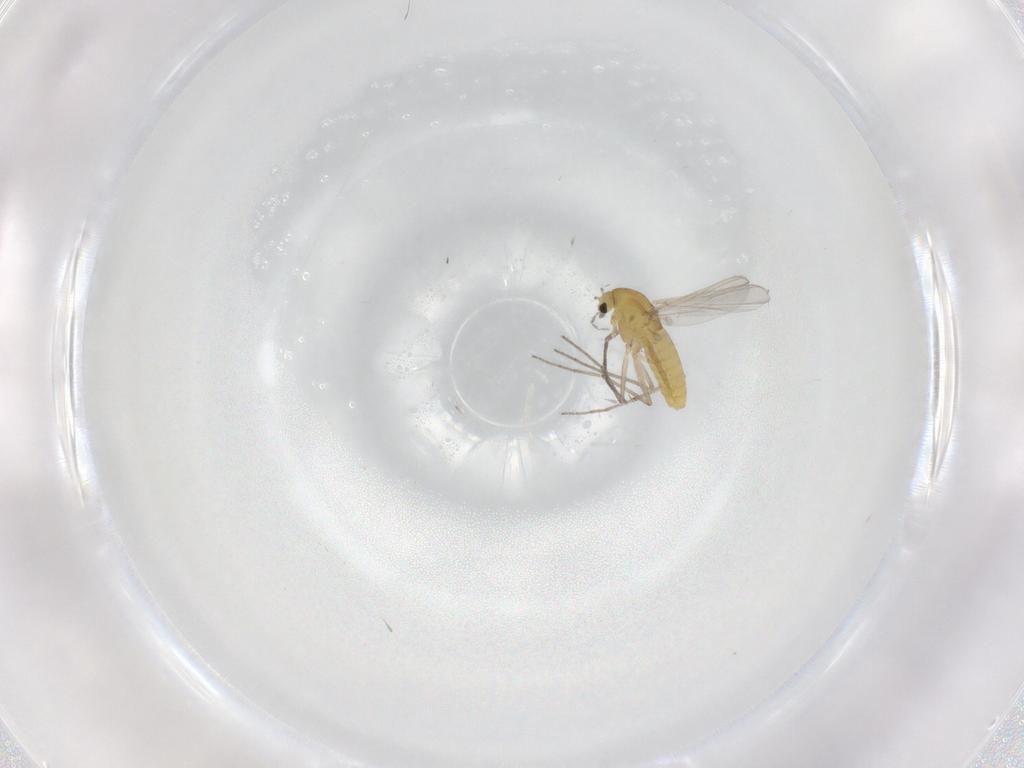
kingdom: Animalia
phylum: Arthropoda
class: Insecta
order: Diptera
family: Chironomidae
